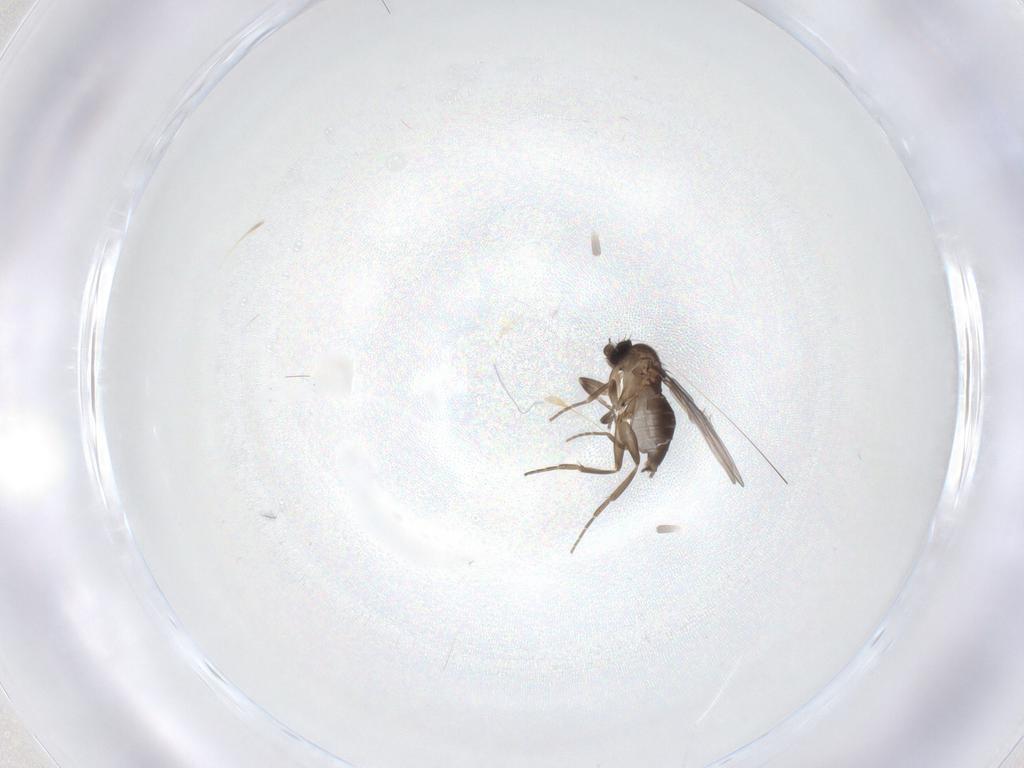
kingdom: Animalia
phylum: Arthropoda
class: Insecta
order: Diptera
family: Phoridae
